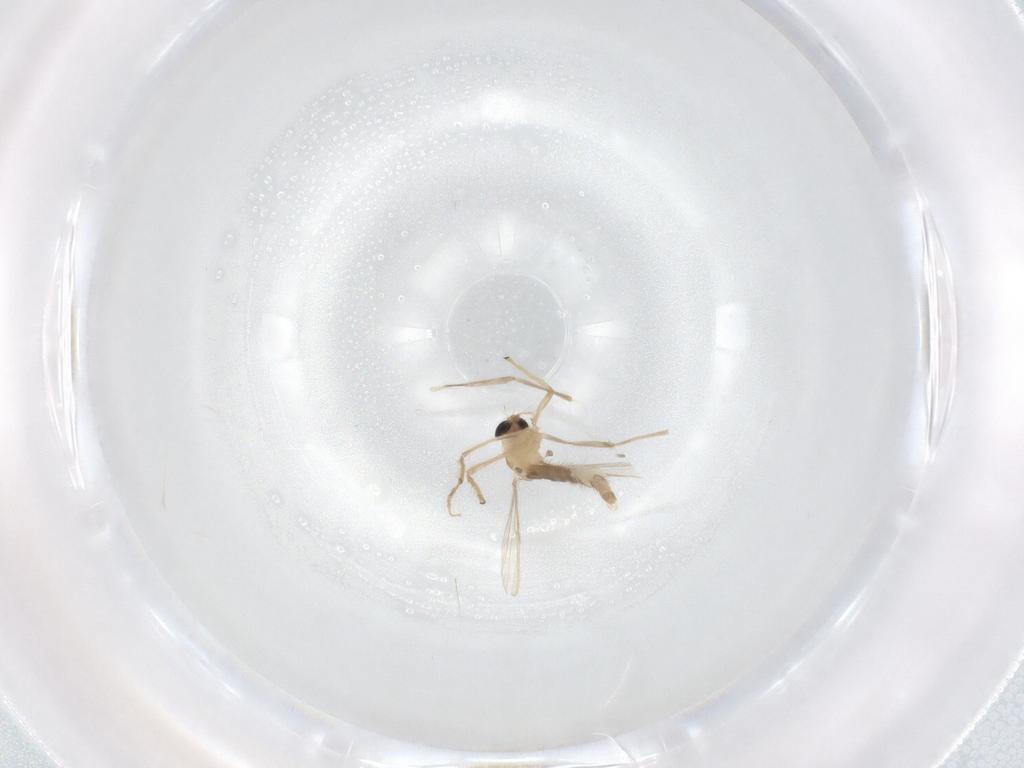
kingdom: Animalia
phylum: Arthropoda
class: Insecta
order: Diptera
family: Chironomidae
